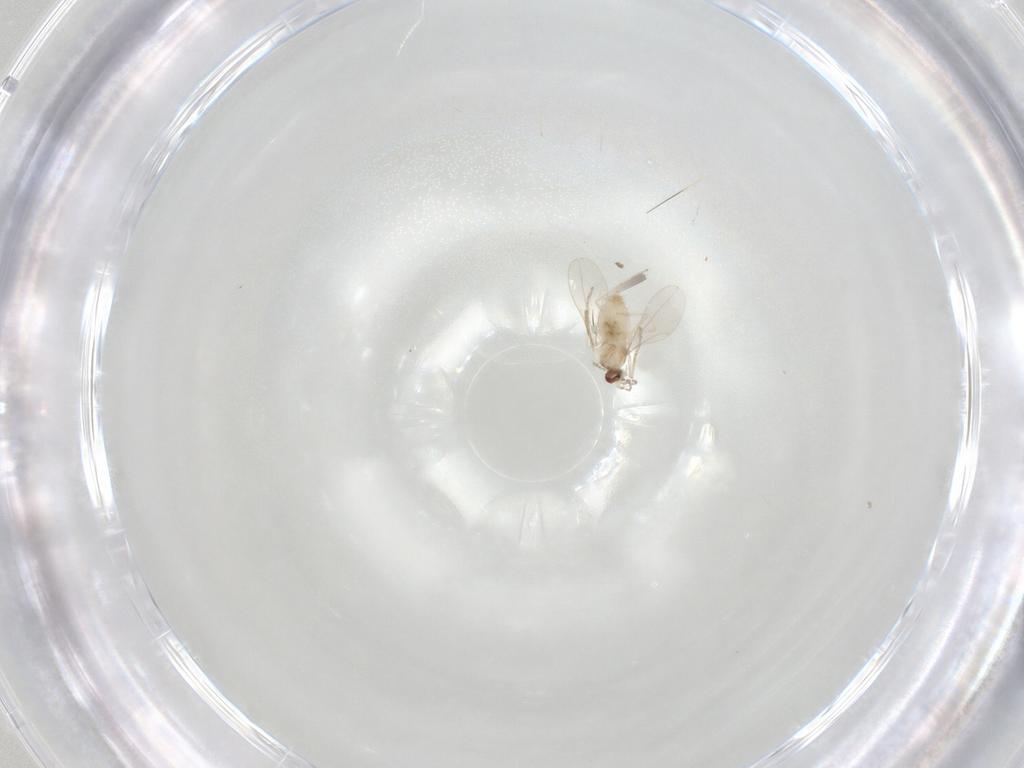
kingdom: Animalia
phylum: Arthropoda
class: Insecta
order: Diptera
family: Cecidomyiidae
